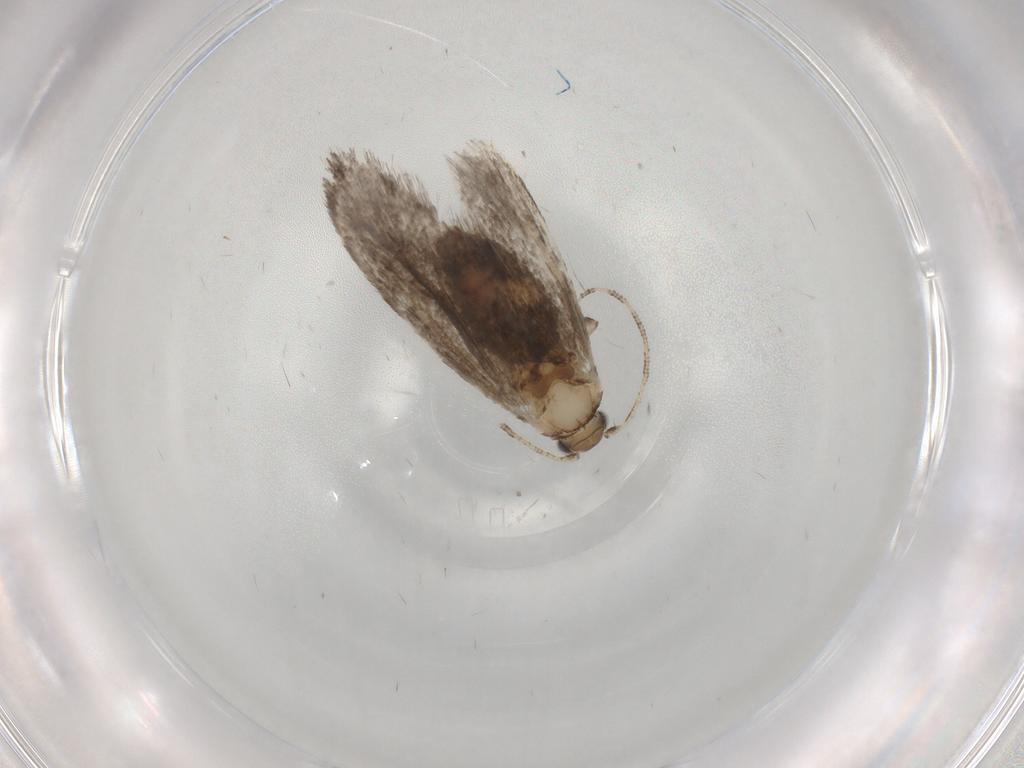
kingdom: Animalia
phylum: Arthropoda
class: Insecta
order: Lepidoptera
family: Tineidae
